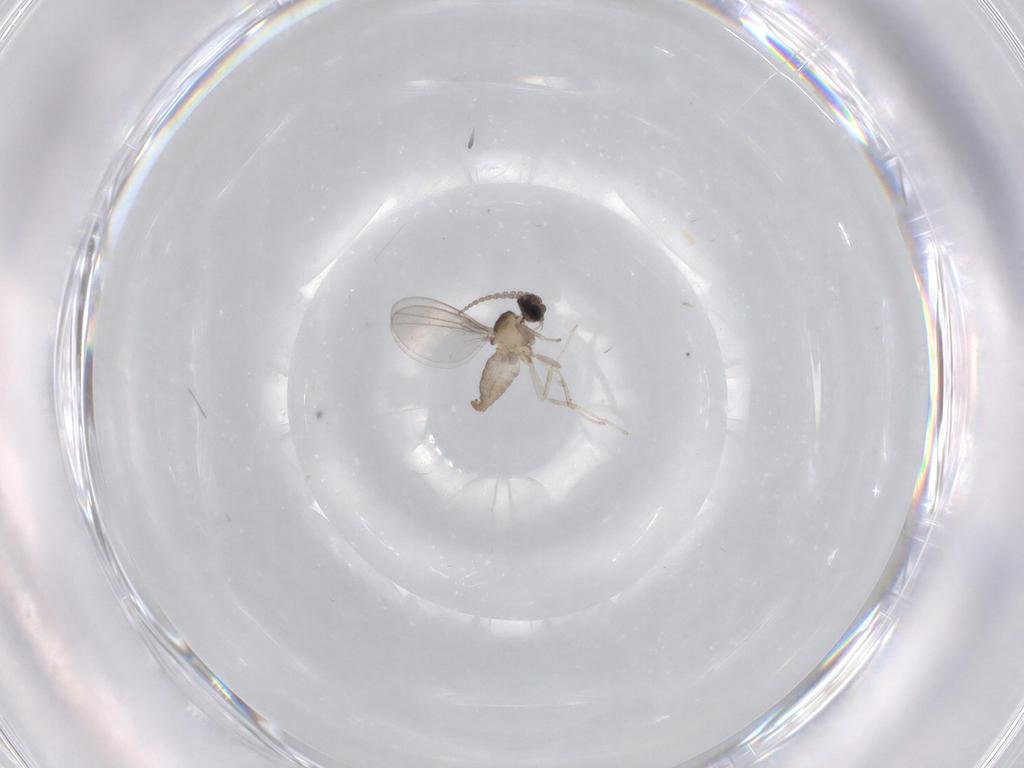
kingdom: Animalia
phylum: Arthropoda
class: Insecta
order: Diptera
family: Cecidomyiidae
